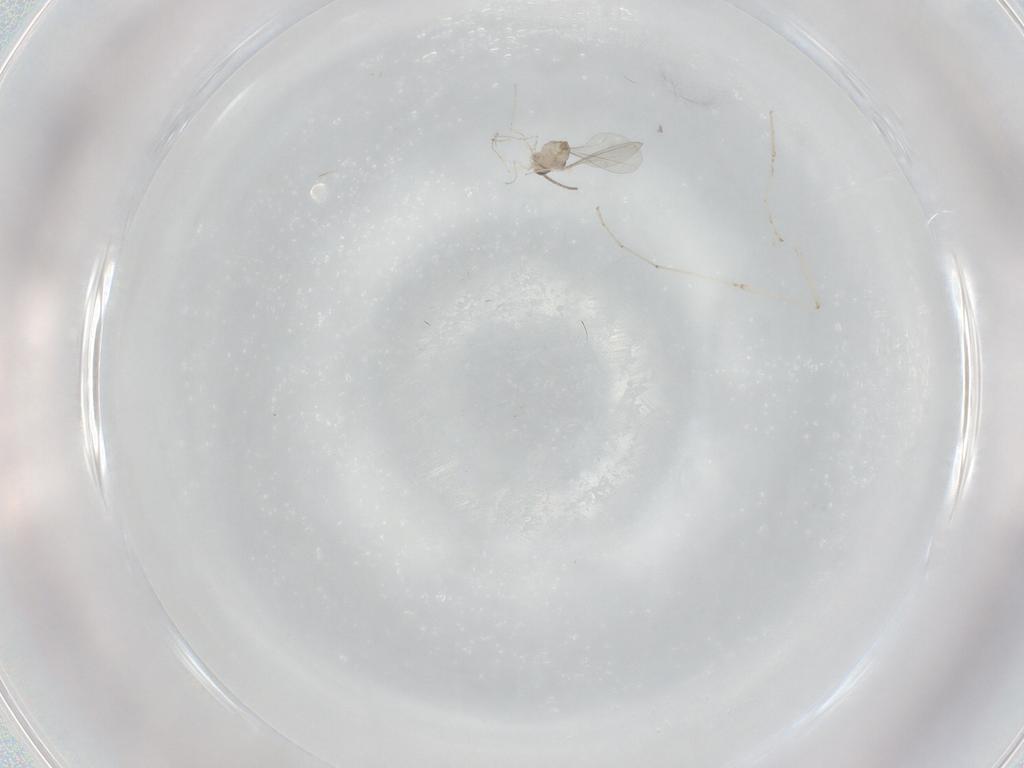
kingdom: Animalia
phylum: Arthropoda
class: Insecta
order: Diptera
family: Cecidomyiidae
